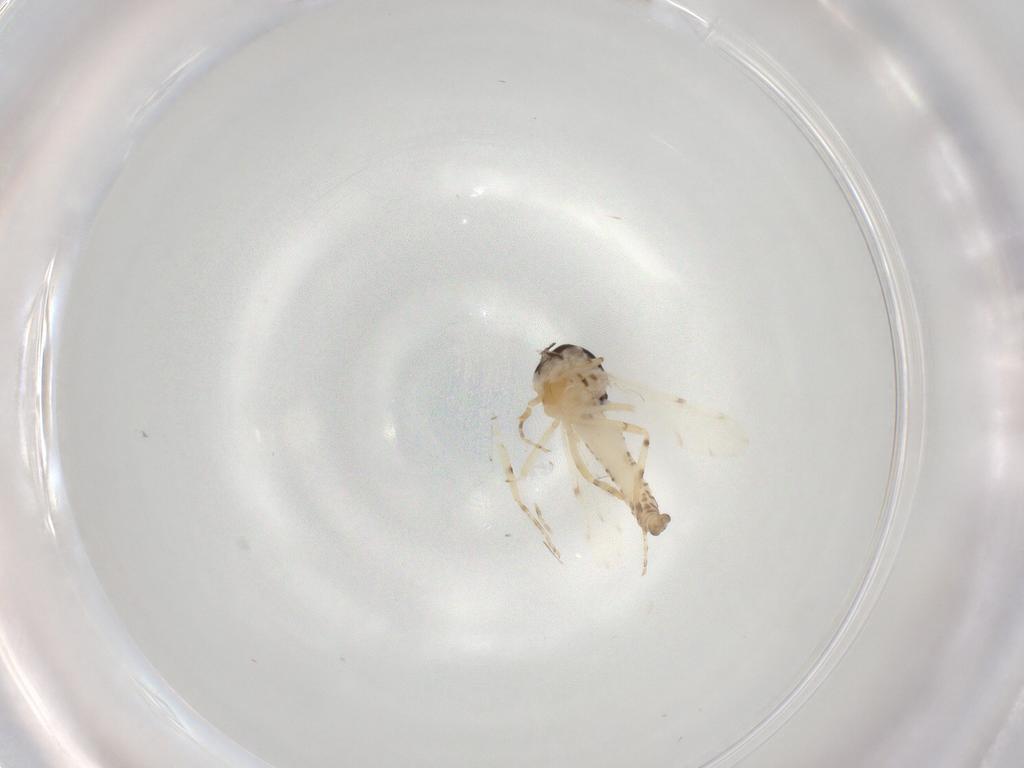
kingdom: Animalia
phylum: Arthropoda
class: Insecta
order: Diptera
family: Ceratopogonidae
